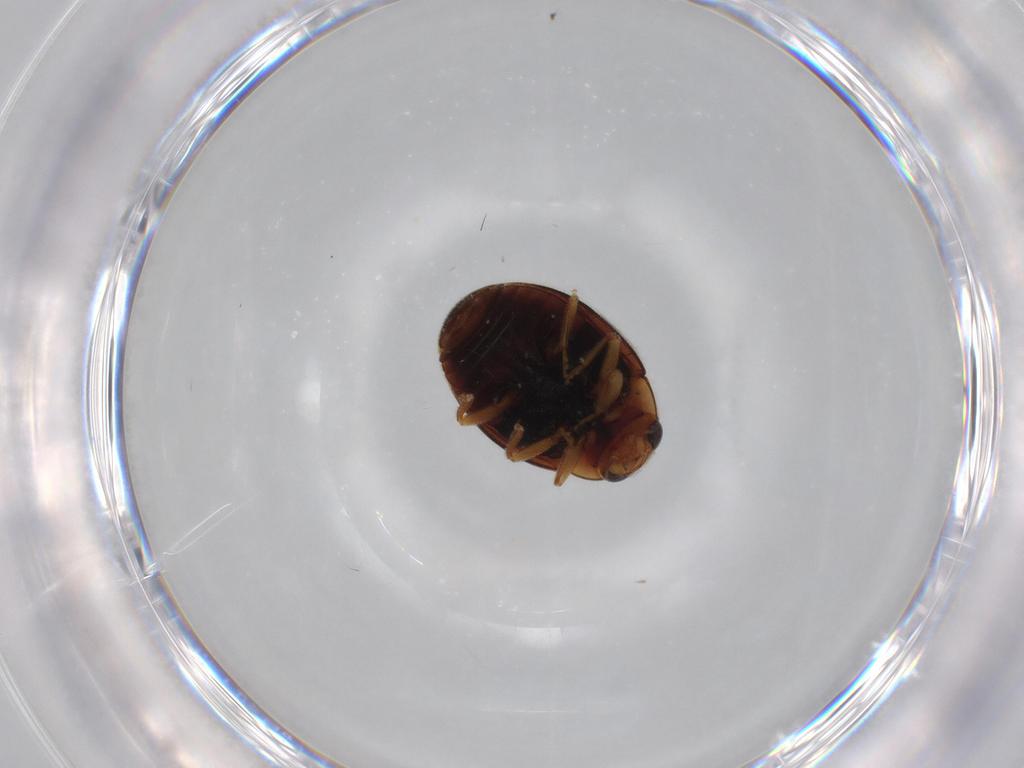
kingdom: Animalia
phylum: Arthropoda
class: Insecta
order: Coleoptera
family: Coccinellidae
